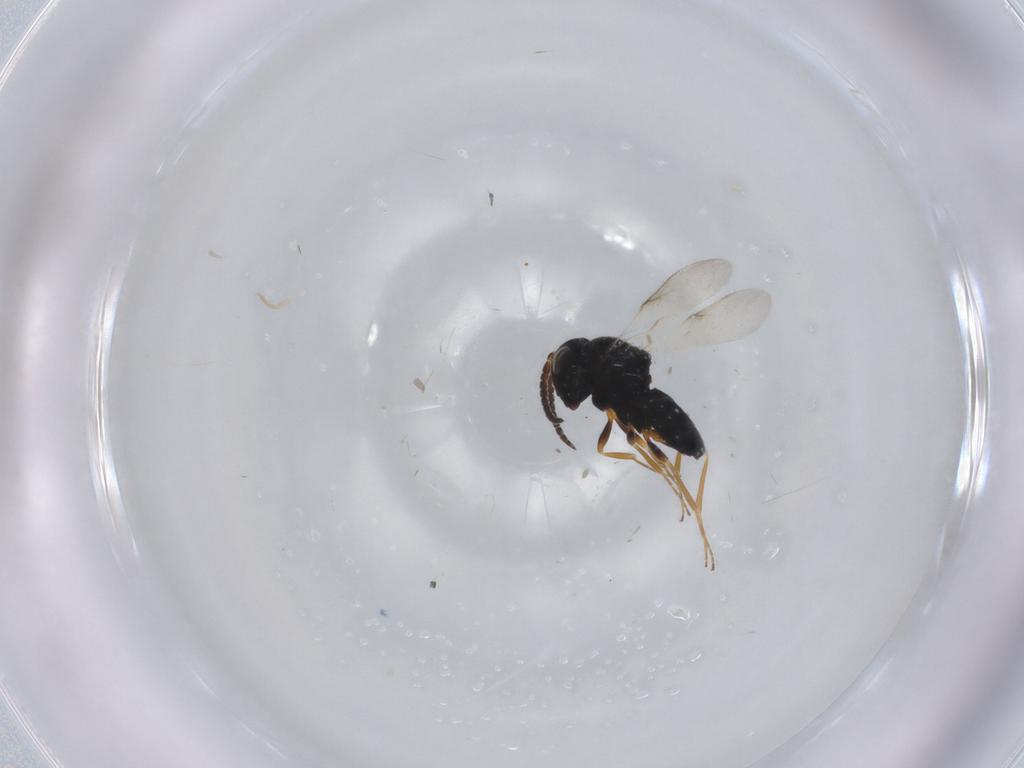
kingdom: Animalia
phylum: Arthropoda
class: Insecta
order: Hymenoptera
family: Scelionidae
